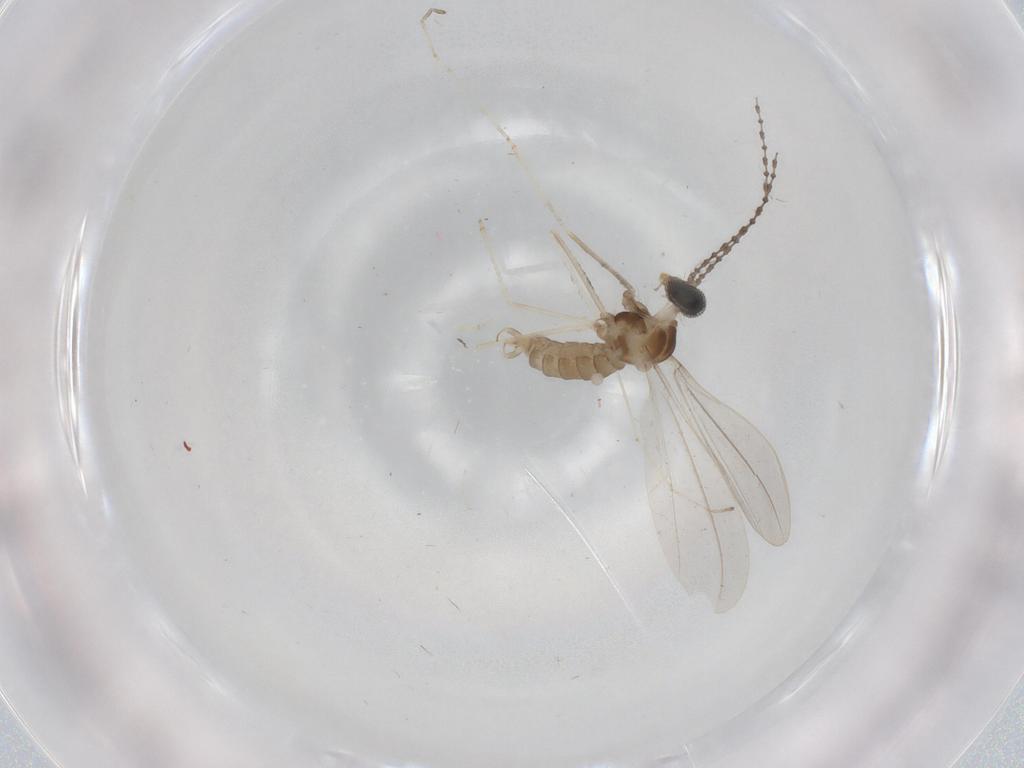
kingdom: Animalia
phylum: Arthropoda
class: Insecta
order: Diptera
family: Cecidomyiidae
